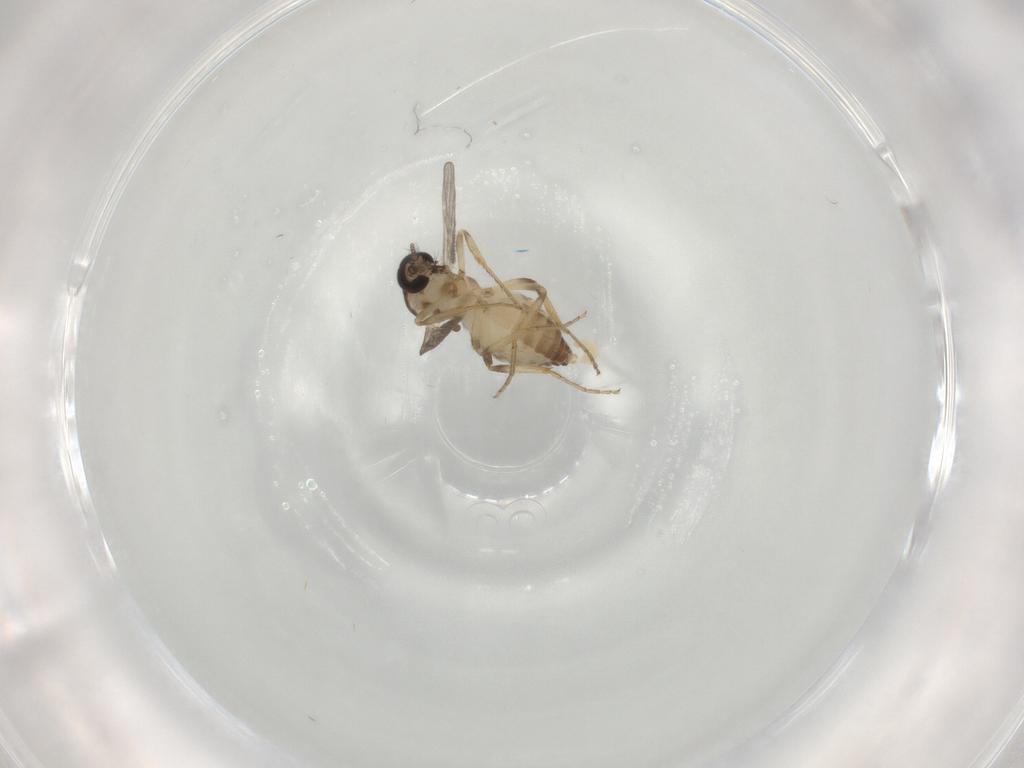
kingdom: Animalia
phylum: Arthropoda
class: Insecta
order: Diptera
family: Ceratopogonidae
